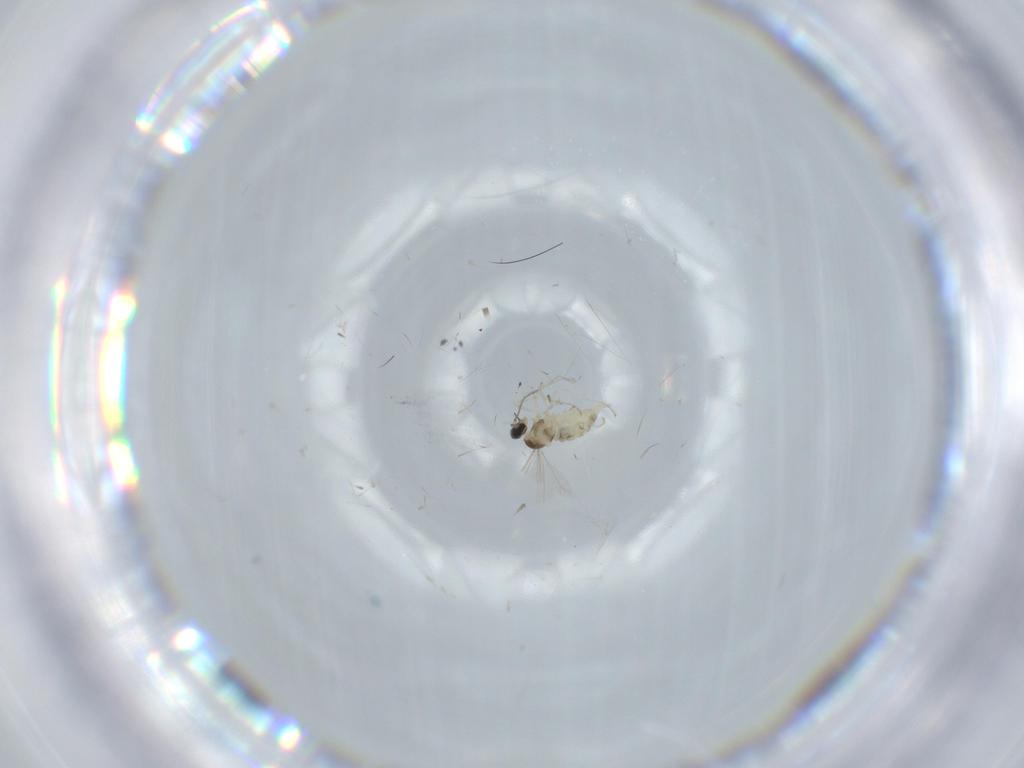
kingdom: Animalia
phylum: Arthropoda
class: Insecta
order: Diptera
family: Cecidomyiidae
